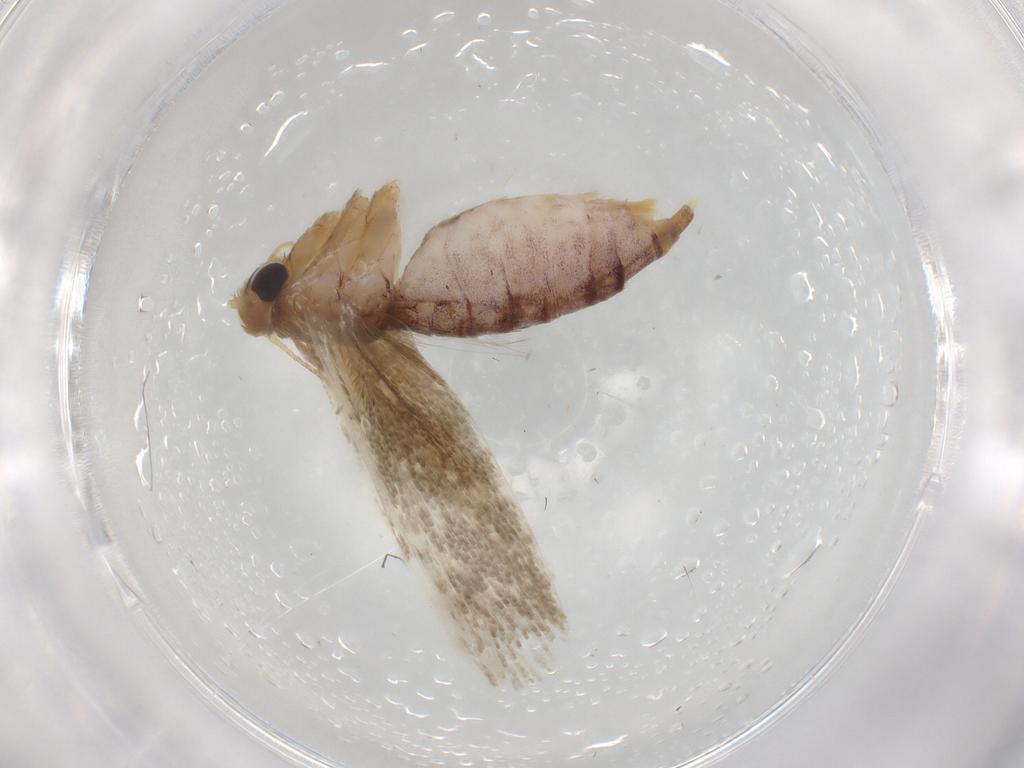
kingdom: Animalia
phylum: Arthropoda
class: Insecta
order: Lepidoptera
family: Blastobasidae
